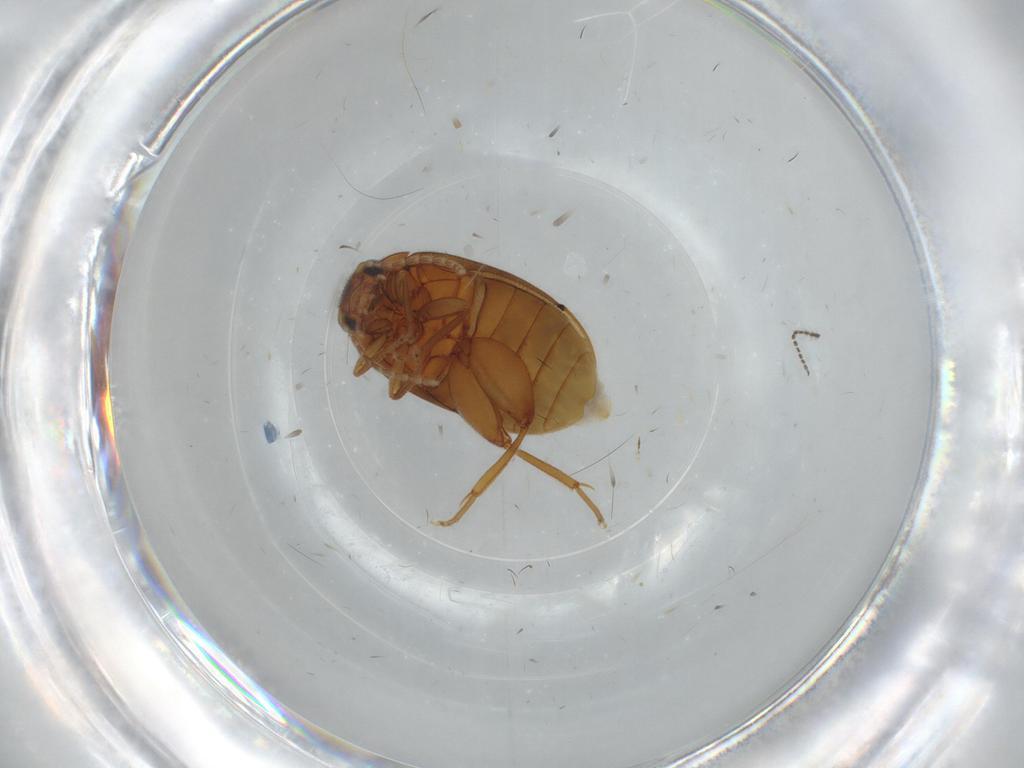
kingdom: Animalia
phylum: Arthropoda
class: Insecta
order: Coleoptera
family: Scirtidae
